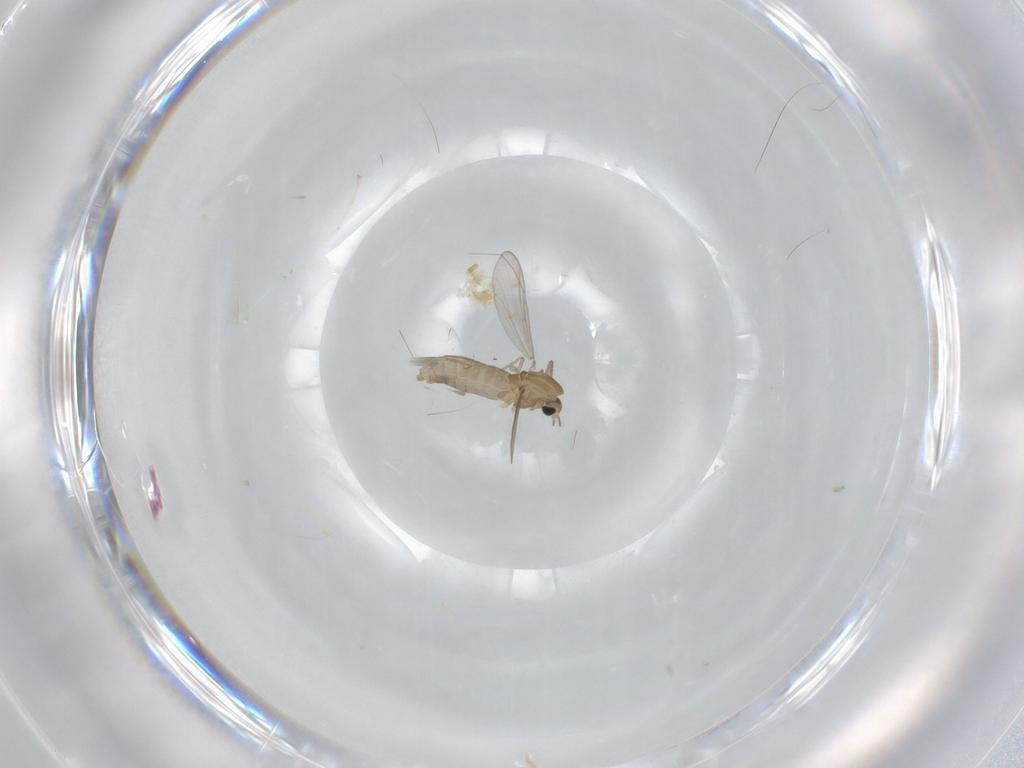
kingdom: Animalia
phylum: Arthropoda
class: Insecta
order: Diptera
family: Chironomidae
